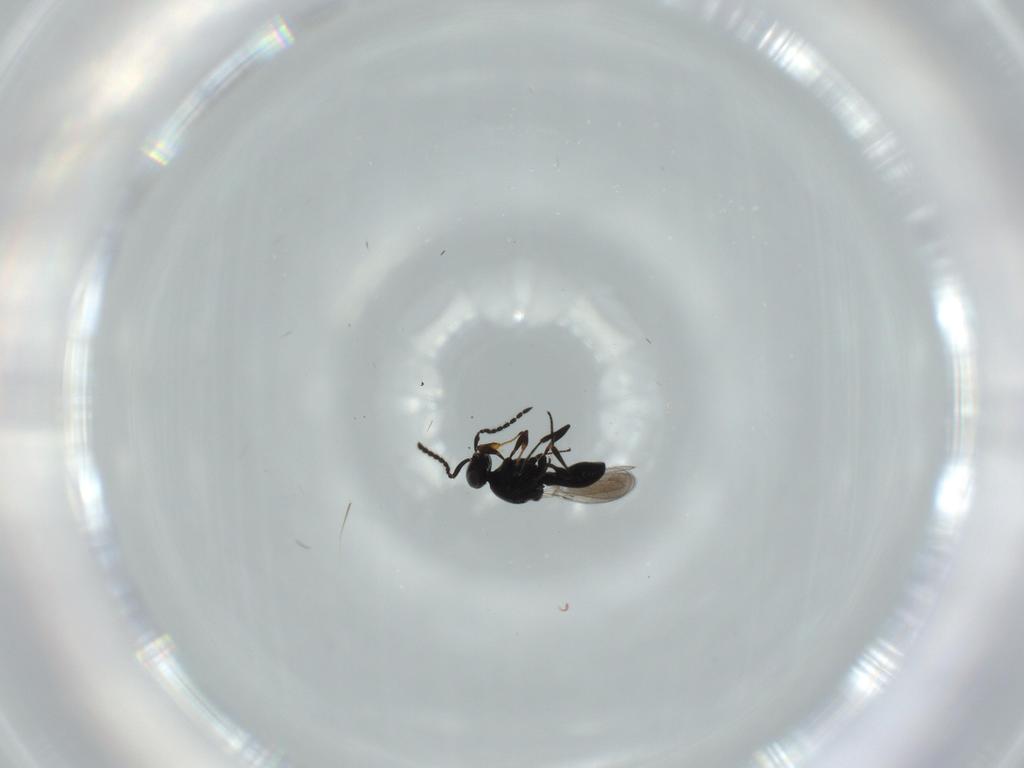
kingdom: Animalia
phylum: Arthropoda
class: Insecta
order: Hymenoptera
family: Platygastridae
